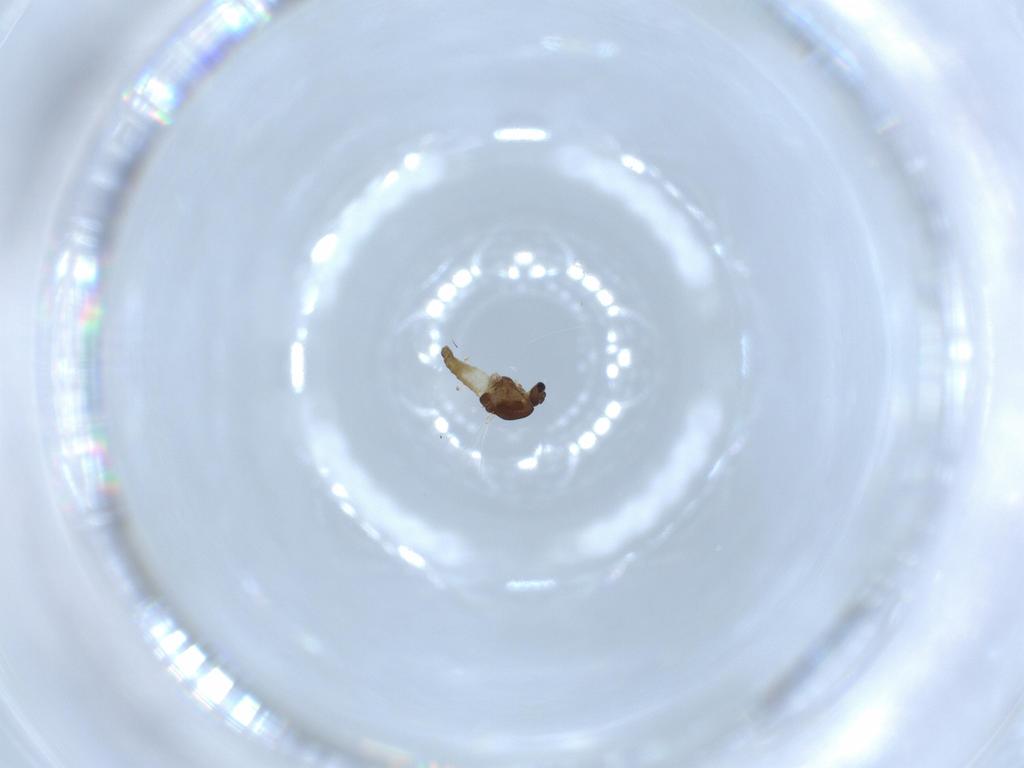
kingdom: Animalia
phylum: Arthropoda
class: Insecta
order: Diptera
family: Chironomidae
